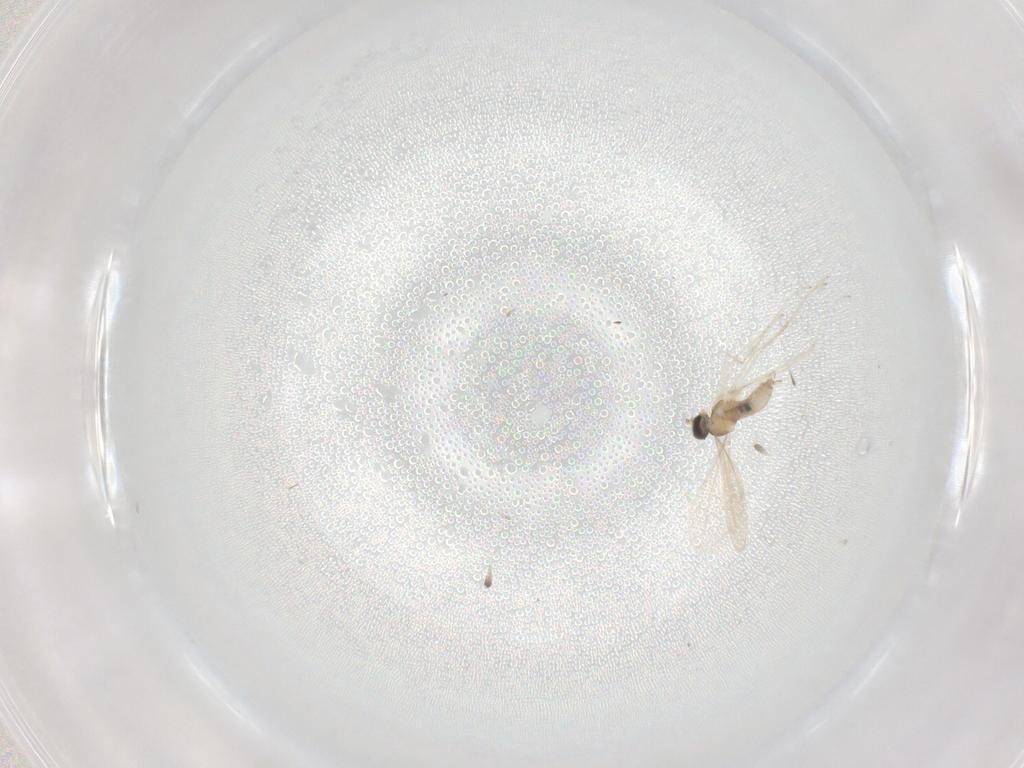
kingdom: Animalia
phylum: Arthropoda
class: Insecta
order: Diptera
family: Cecidomyiidae
